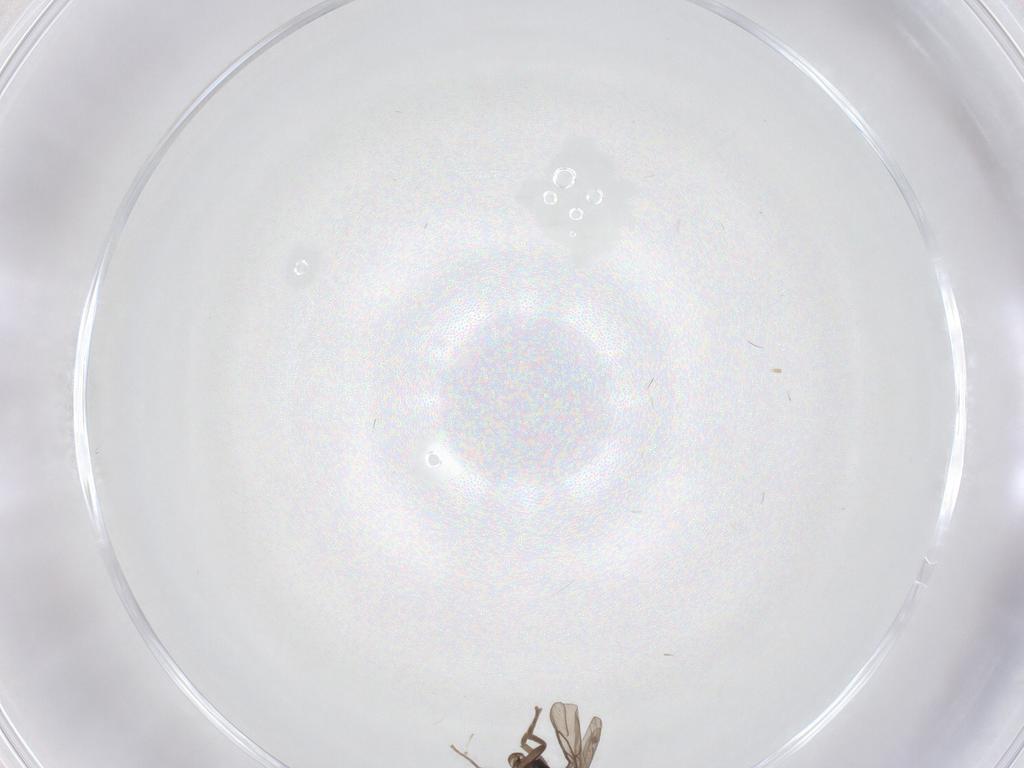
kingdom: Animalia
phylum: Arthropoda
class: Insecta
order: Diptera
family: Phoridae
